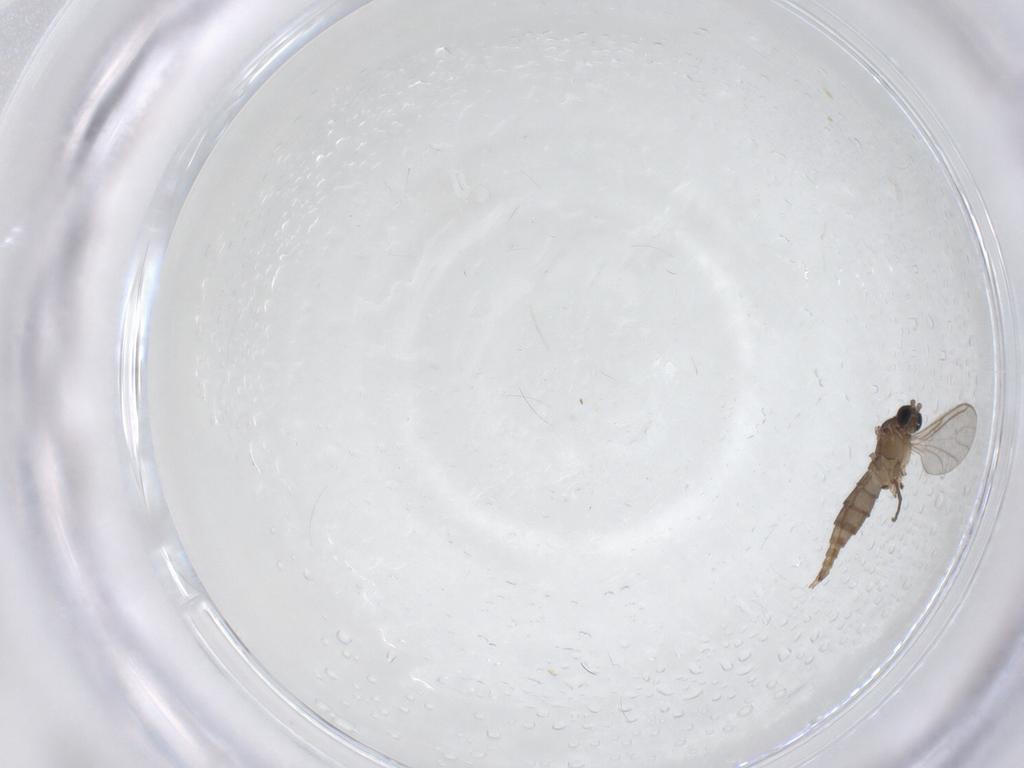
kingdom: Animalia
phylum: Arthropoda
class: Insecta
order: Diptera
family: Sciaridae
